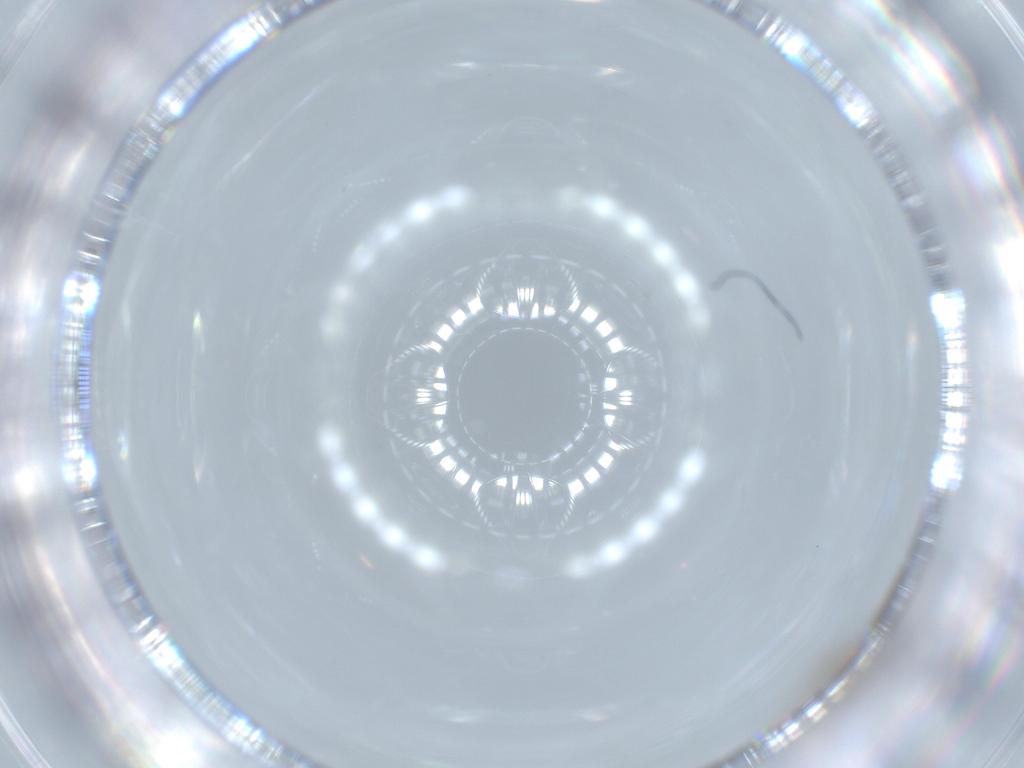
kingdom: Animalia
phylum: Arthropoda
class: Insecta
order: Diptera
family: Cecidomyiidae
